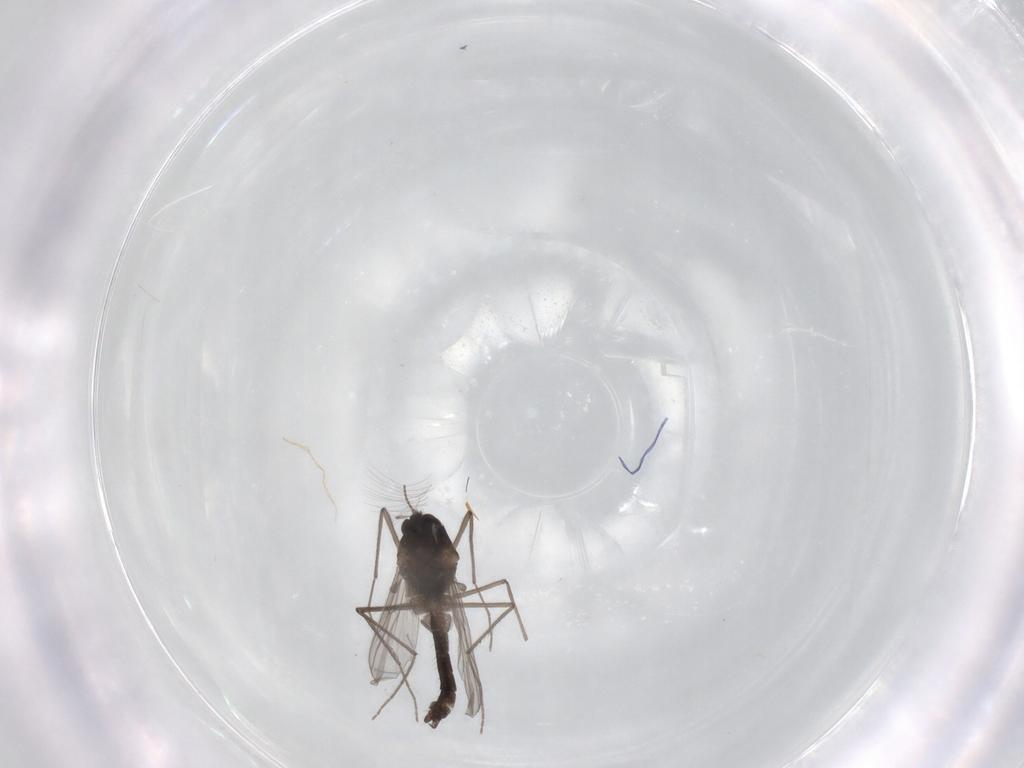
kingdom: Animalia
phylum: Arthropoda
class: Insecta
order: Diptera
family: Chironomidae
